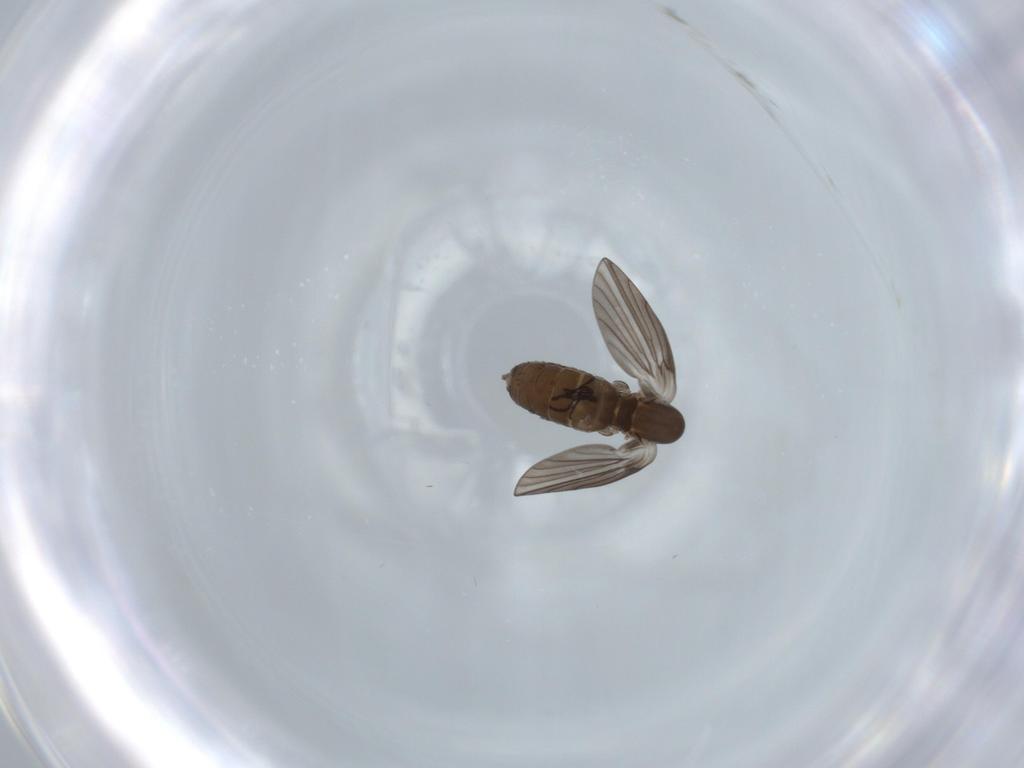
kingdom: Animalia
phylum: Arthropoda
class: Insecta
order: Diptera
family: Psychodidae
